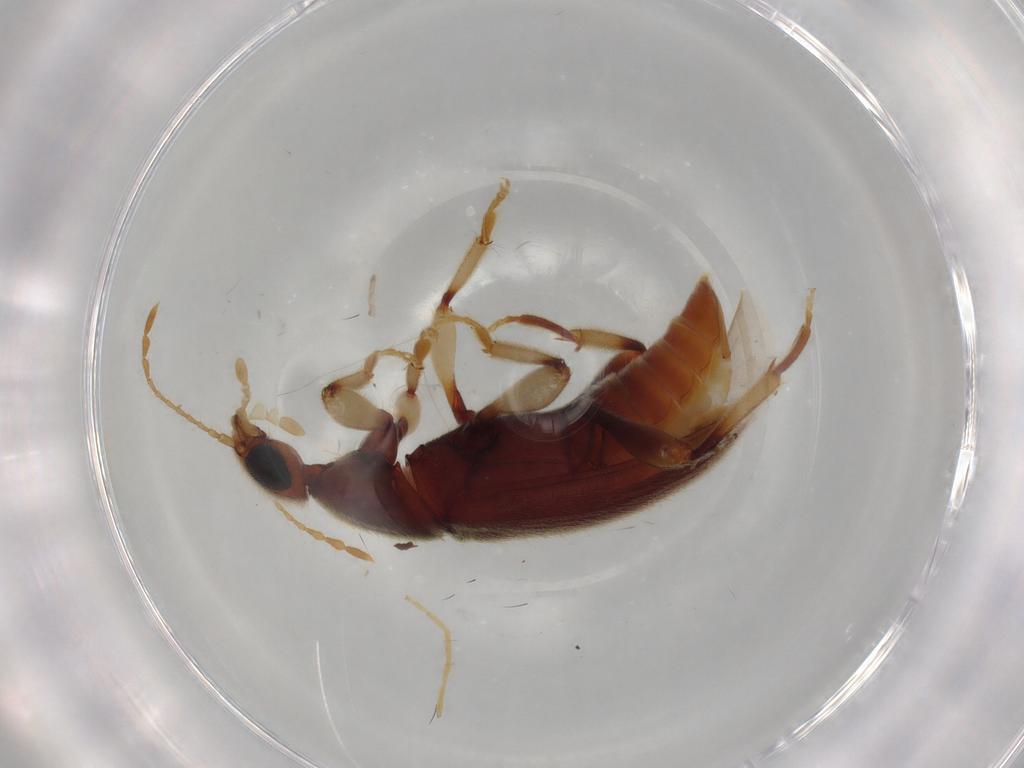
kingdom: Animalia
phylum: Arthropoda
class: Insecta
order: Coleoptera
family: Anthicidae
